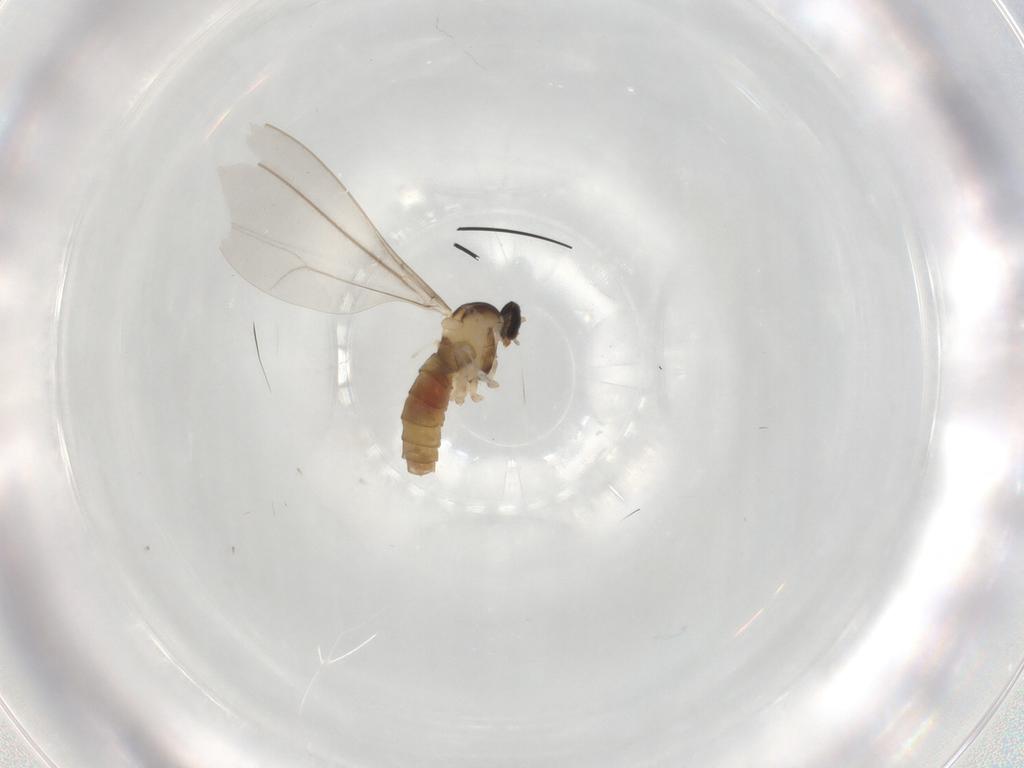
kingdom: Animalia
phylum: Arthropoda
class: Insecta
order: Diptera
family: Cecidomyiidae
